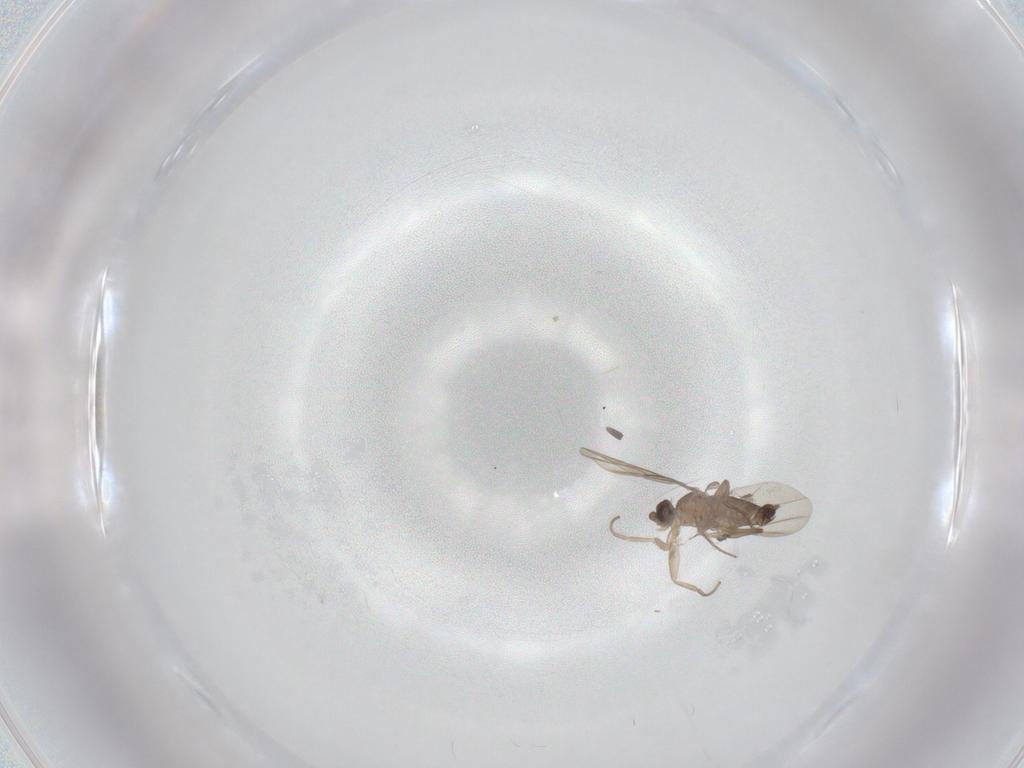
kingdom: Animalia
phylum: Arthropoda
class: Insecta
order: Diptera
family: Phoridae
